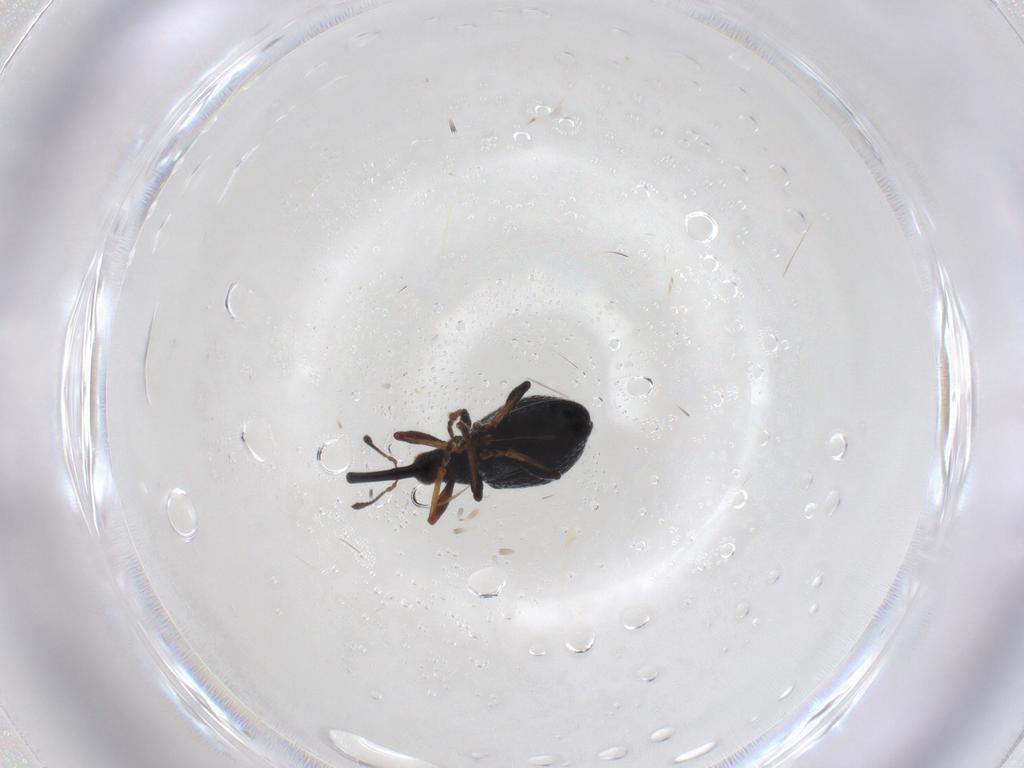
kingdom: Animalia
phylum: Arthropoda
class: Insecta
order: Coleoptera
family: Brentidae
